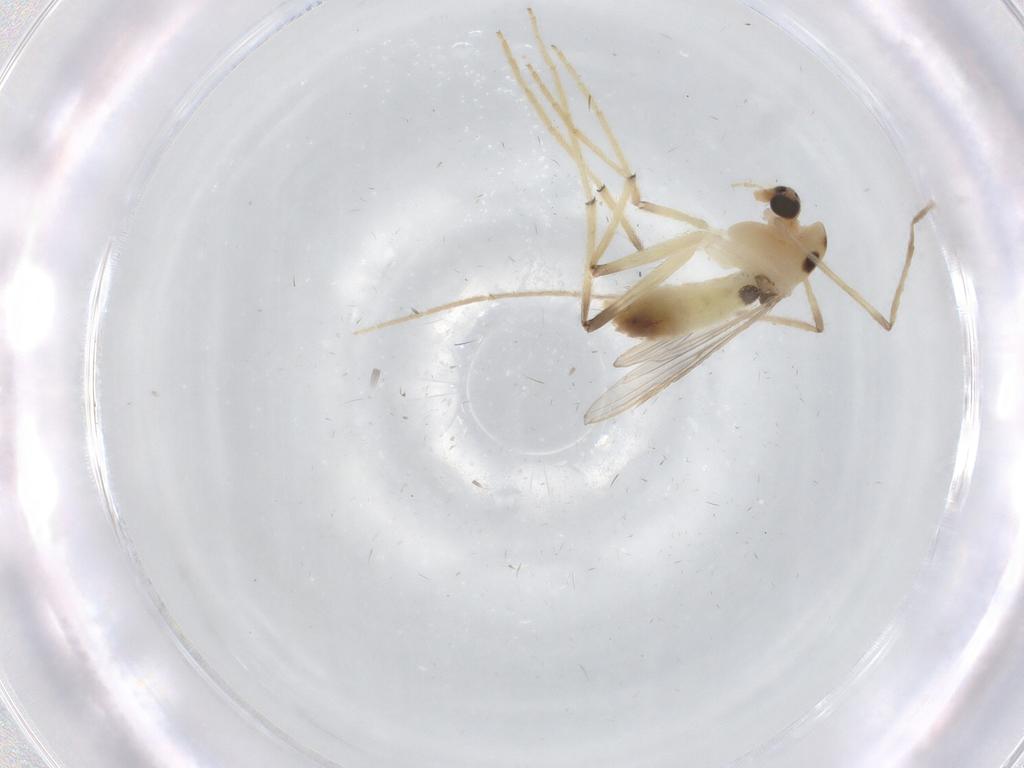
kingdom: Animalia
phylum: Arthropoda
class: Insecta
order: Diptera
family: Chironomidae
